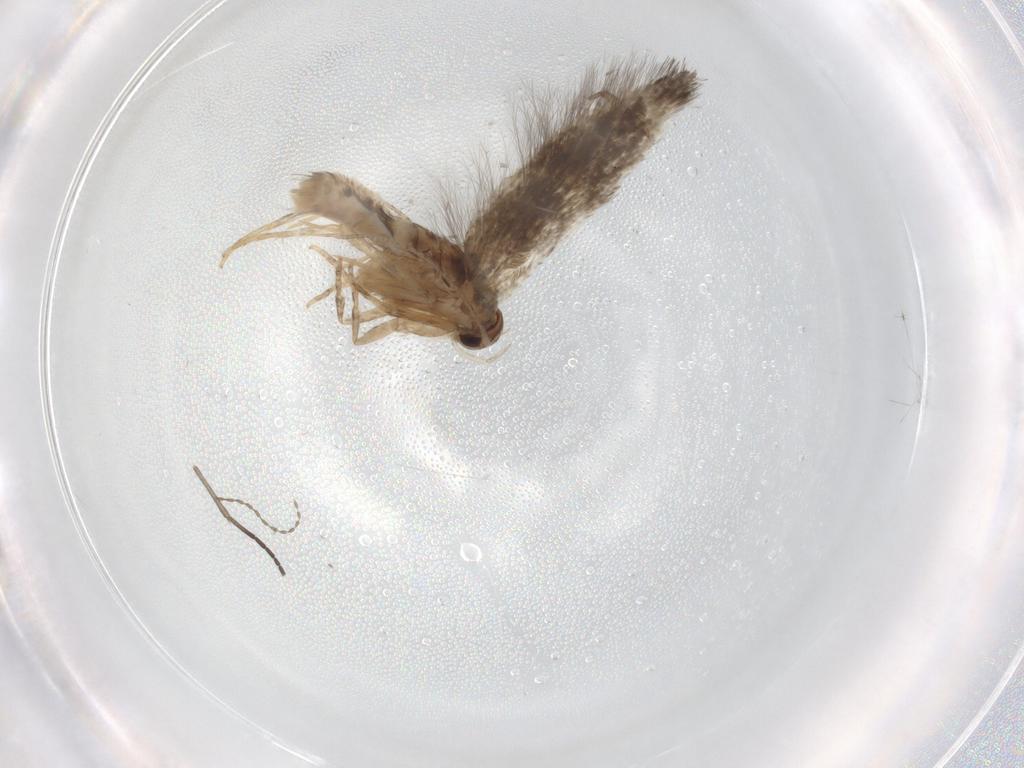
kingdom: Animalia
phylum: Arthropoda
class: Insecta
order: Lepidoptera
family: Elachistidae
